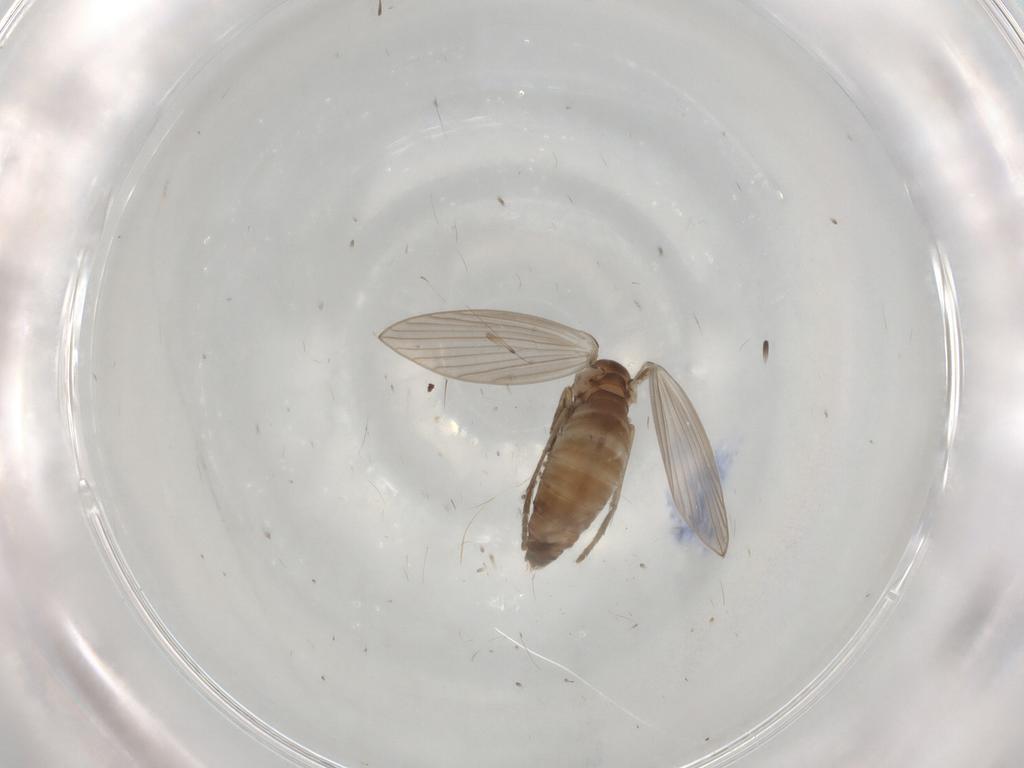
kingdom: Animalia
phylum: Arthropoda
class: Insecta
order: Diptera
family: Psychodidae
